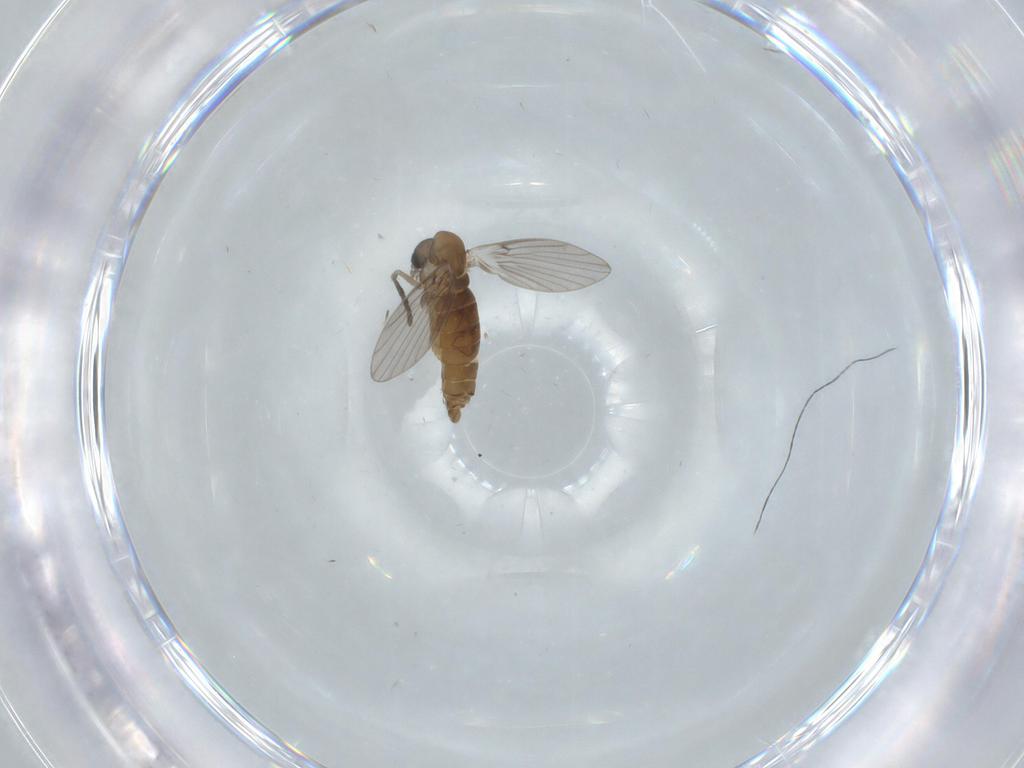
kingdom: Animalia
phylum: Arthropoda
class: Insecta
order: Diptera
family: Psychodidae
